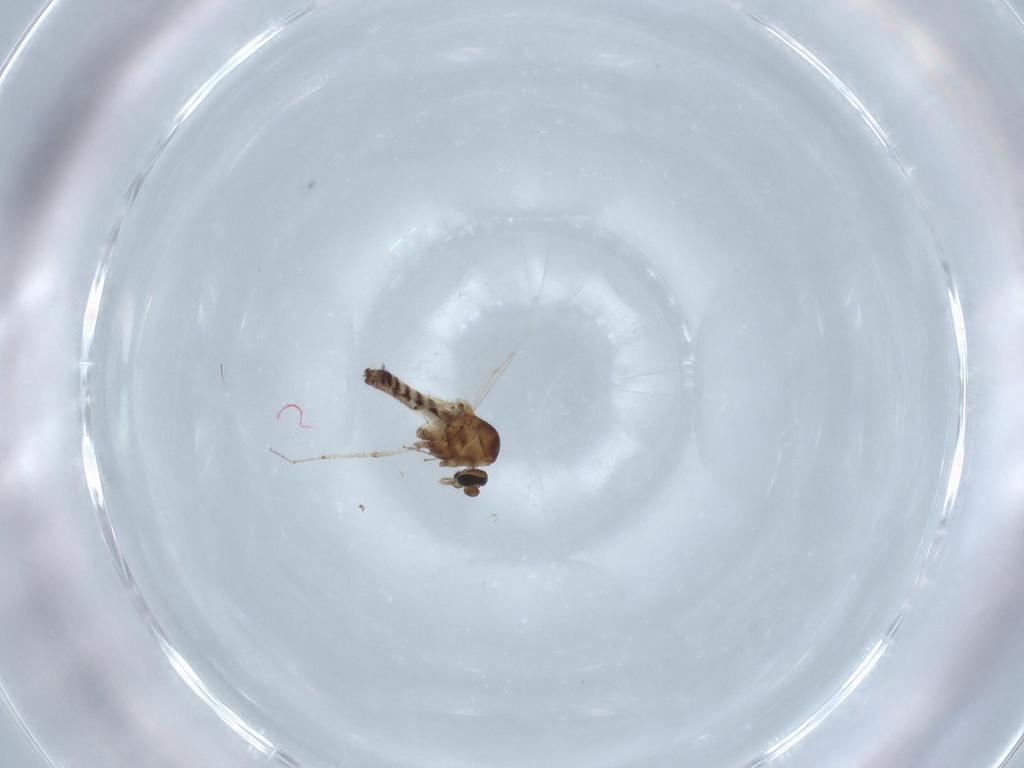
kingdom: Animalia
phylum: Arthropoda
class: Insecta
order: Diptera
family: Ceratopogonidae
